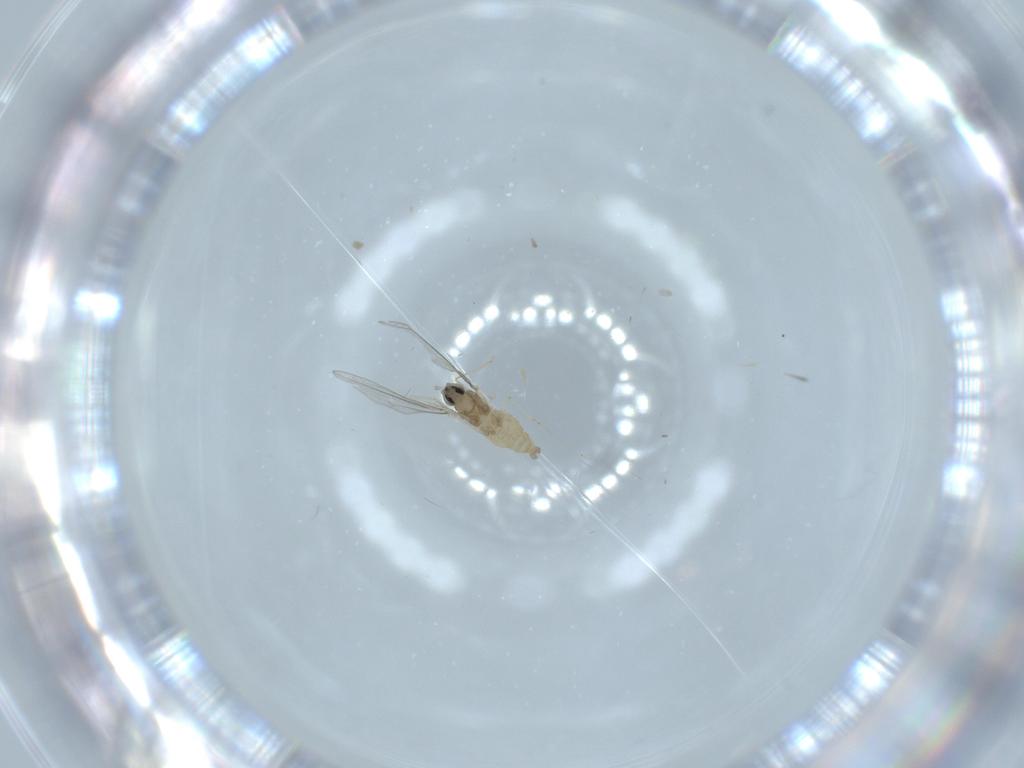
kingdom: Animalia
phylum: Arthropoda
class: Insecta
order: Diptera
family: Cecidomyiidae
